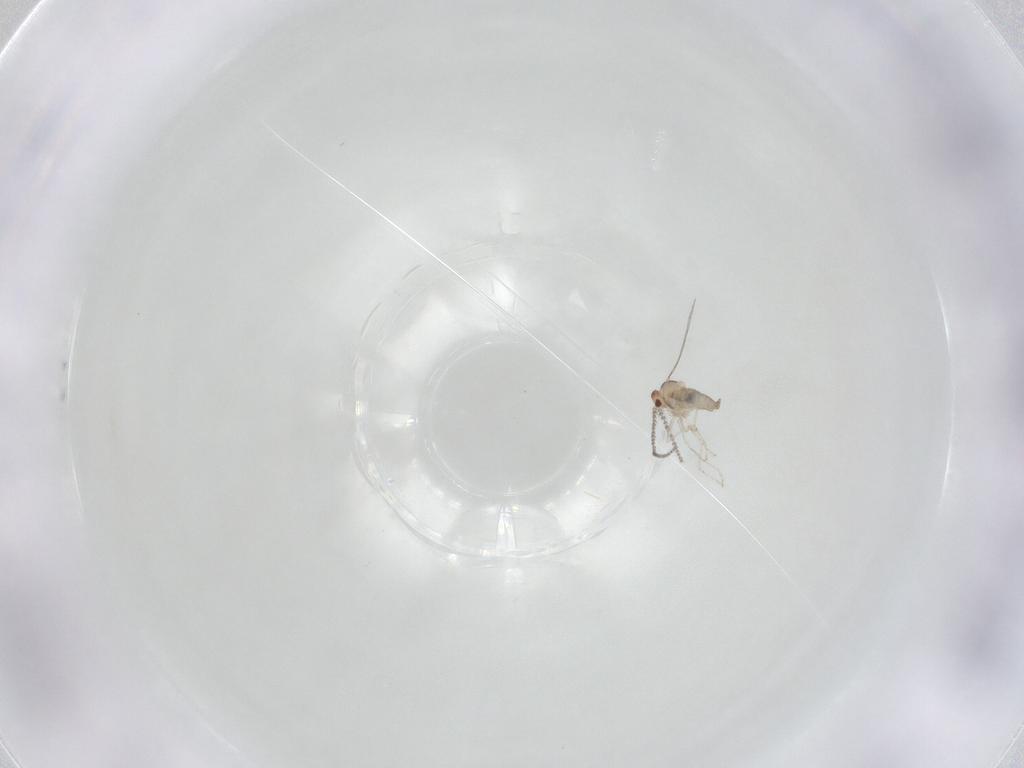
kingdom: Animalia
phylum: Arthropoda
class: Insecta
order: Diptera
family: Cecidomyiidae
